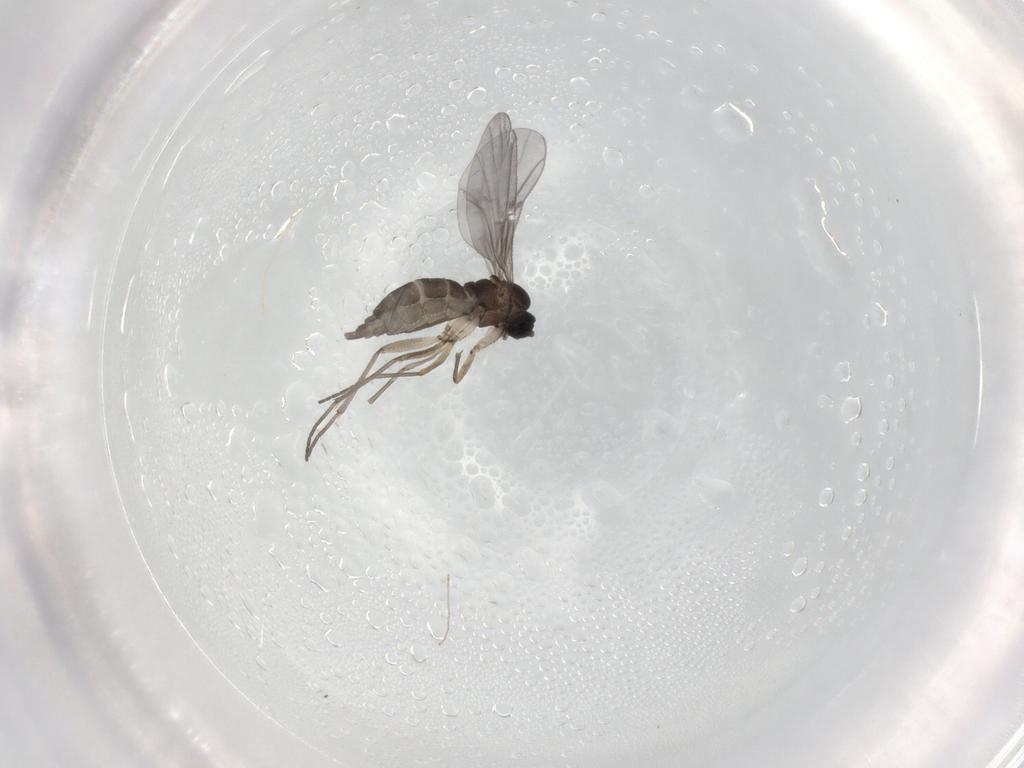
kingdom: Animalia
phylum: Arthropoda
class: Insecta
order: Diptera
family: Sciaridae
